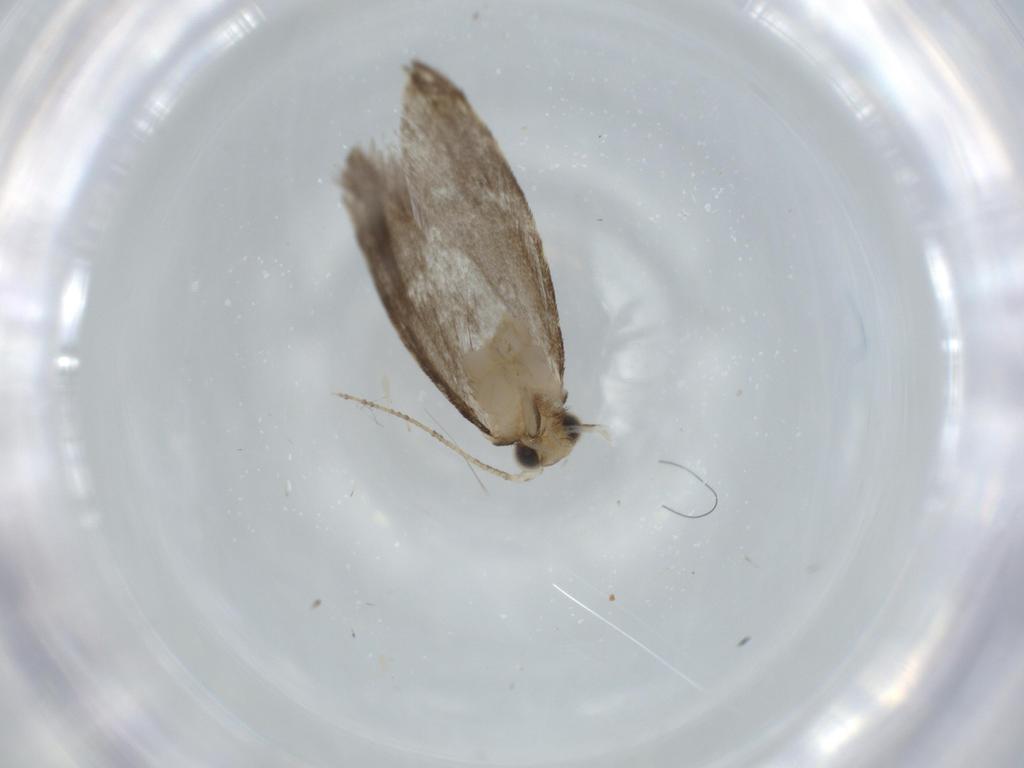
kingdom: Animalia
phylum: Arthropoda
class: Insecta
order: Lepidoptera
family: Tineidae
